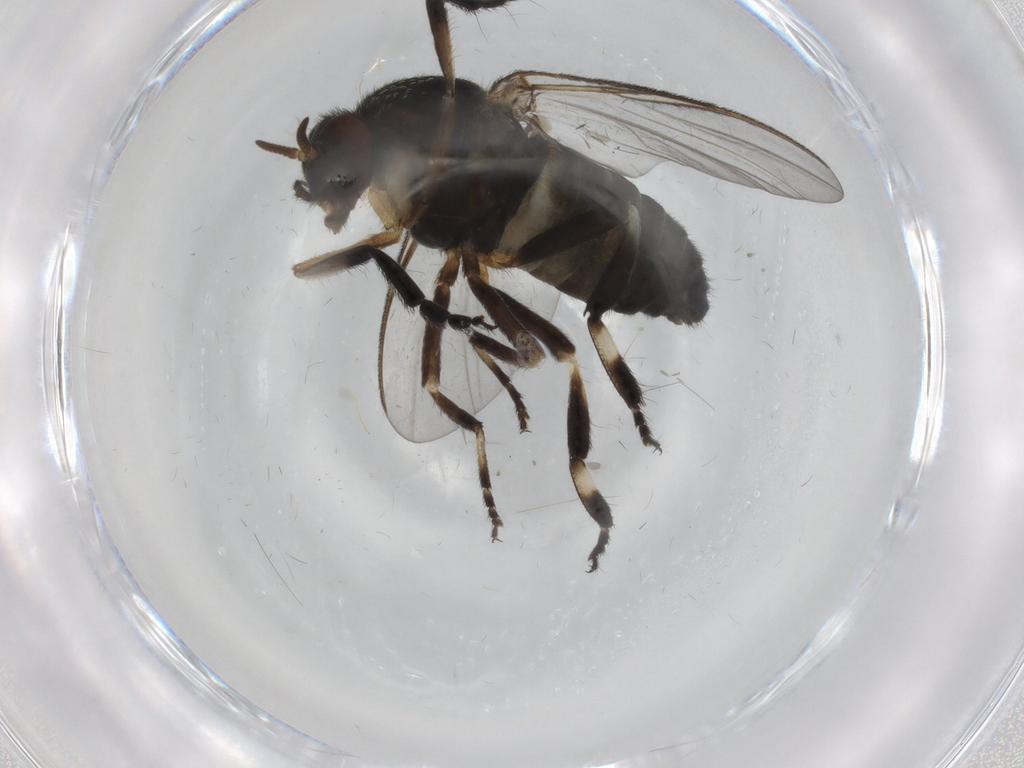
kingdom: Animalia
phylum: Arthropoda
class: Insecta
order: Diptera
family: Simuliidae
